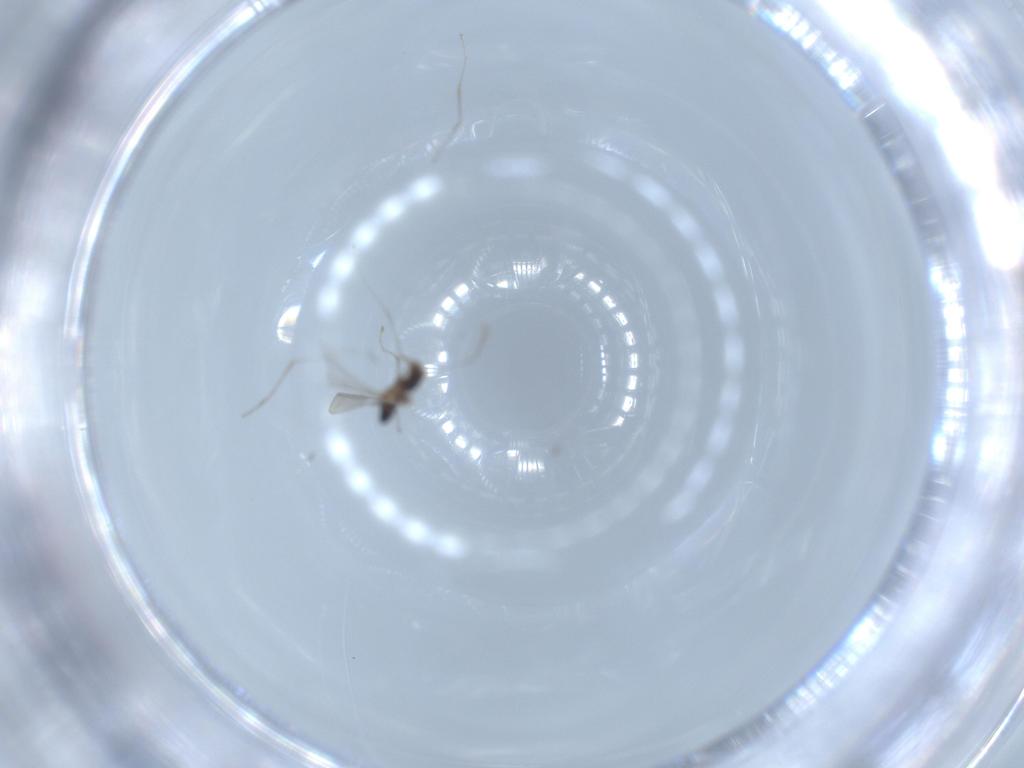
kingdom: Animalia
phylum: Arthropoda
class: Insecta
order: Diptera
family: Cecidomyiidae
